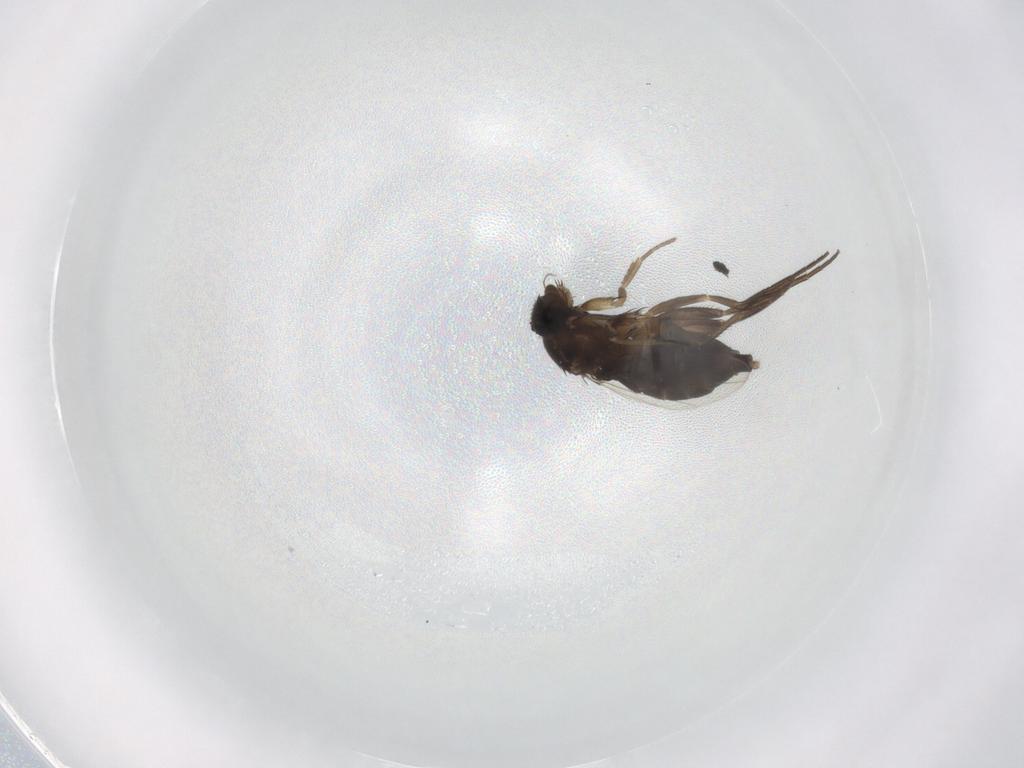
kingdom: Animalia
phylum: Arthropoda
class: Insecta
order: Diptera
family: Phoridae
